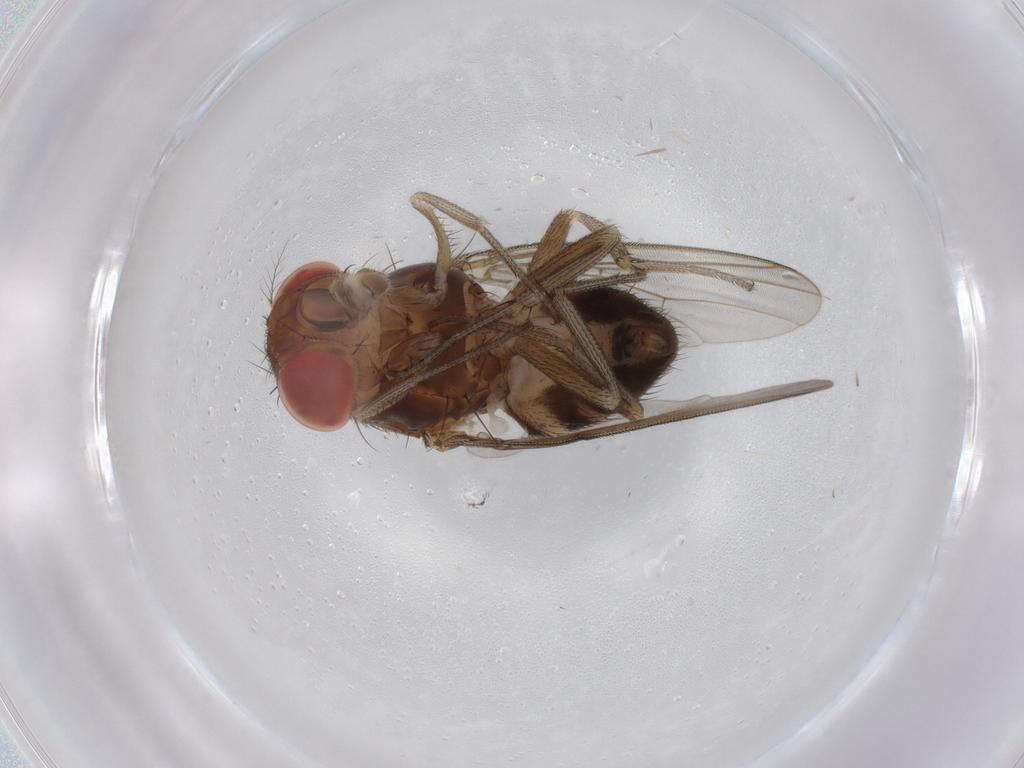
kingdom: Animalia
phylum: Arthropoda
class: Insecta
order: Diptera
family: Drosophilidae
